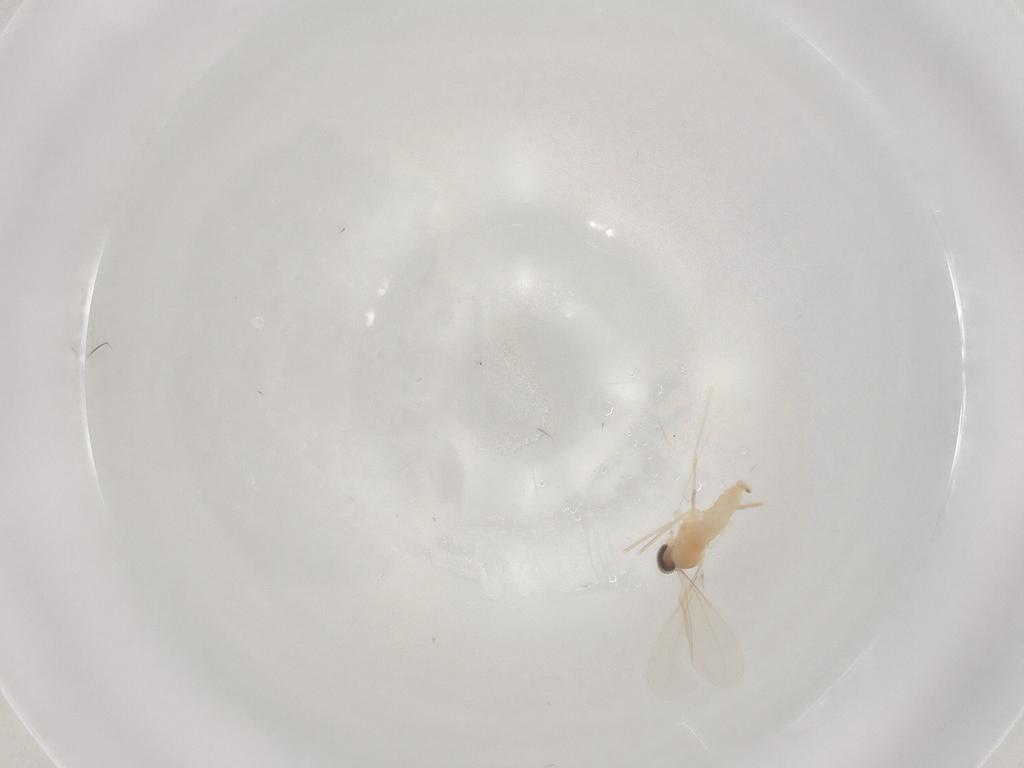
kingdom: Animalia
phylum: Arthropoda
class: Insecta
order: Diptera
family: Cecidomyiidae
